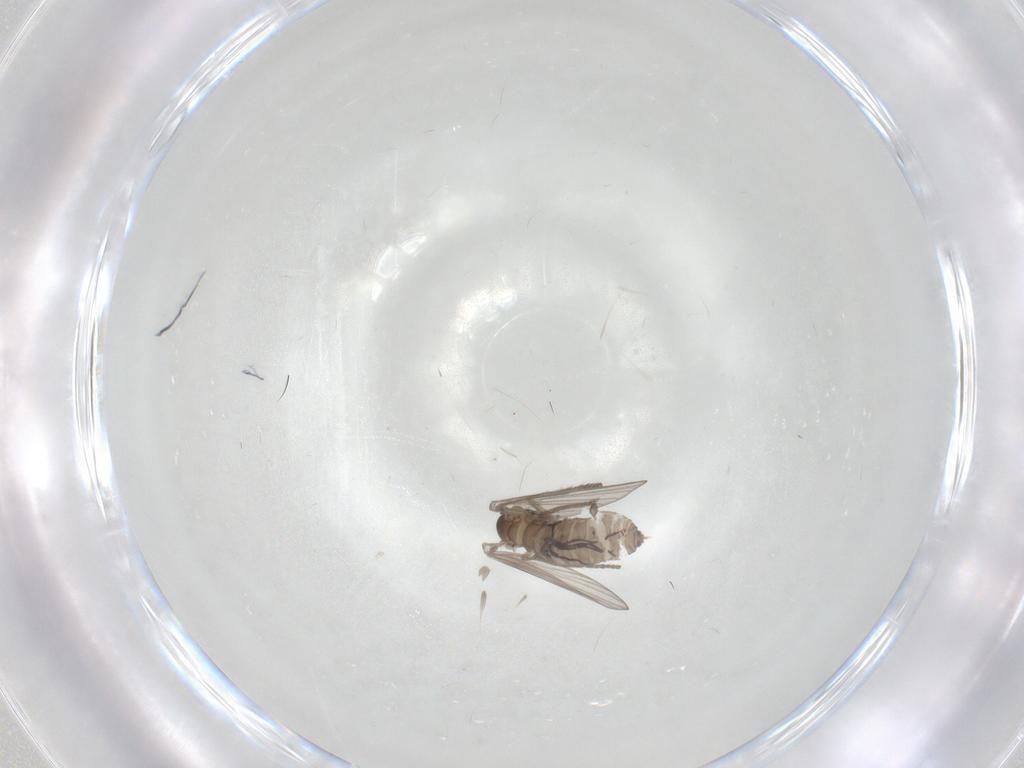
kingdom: Animalia
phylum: Arthropoda
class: Insecta
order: Diptera
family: Psychodidae
